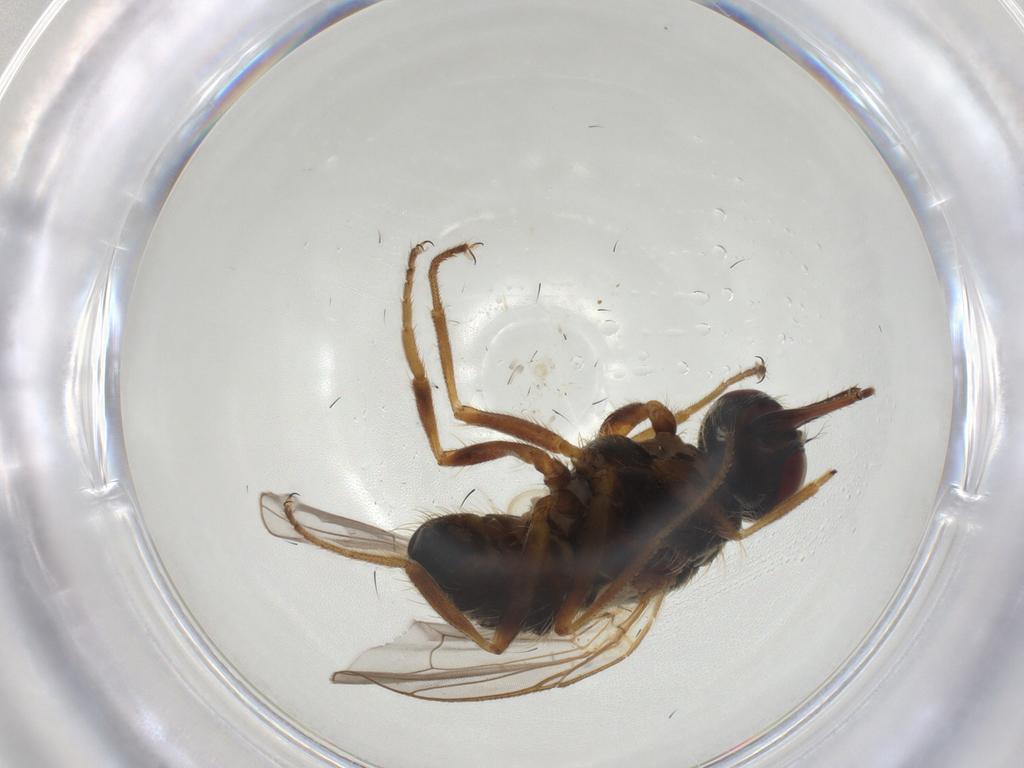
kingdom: Animalia
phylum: Arthropoda
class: Insecta
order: Diptera
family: Muscidae
